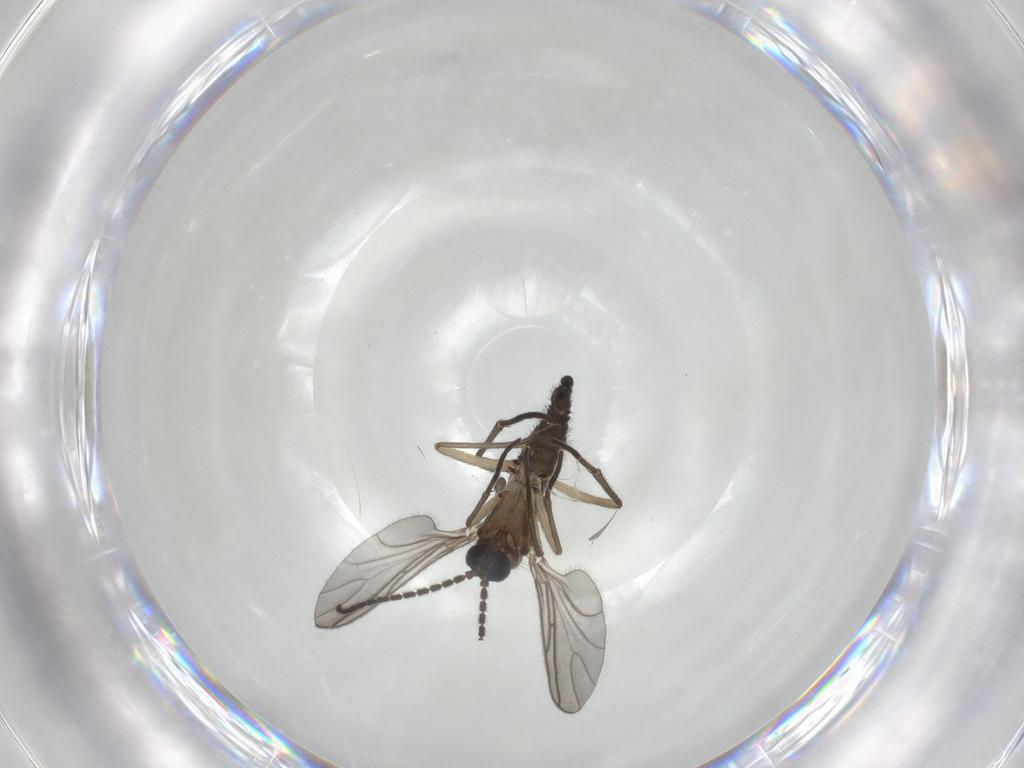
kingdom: Animalia
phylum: Arthropoda
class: Insecta
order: Diptera
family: Sciaridae
